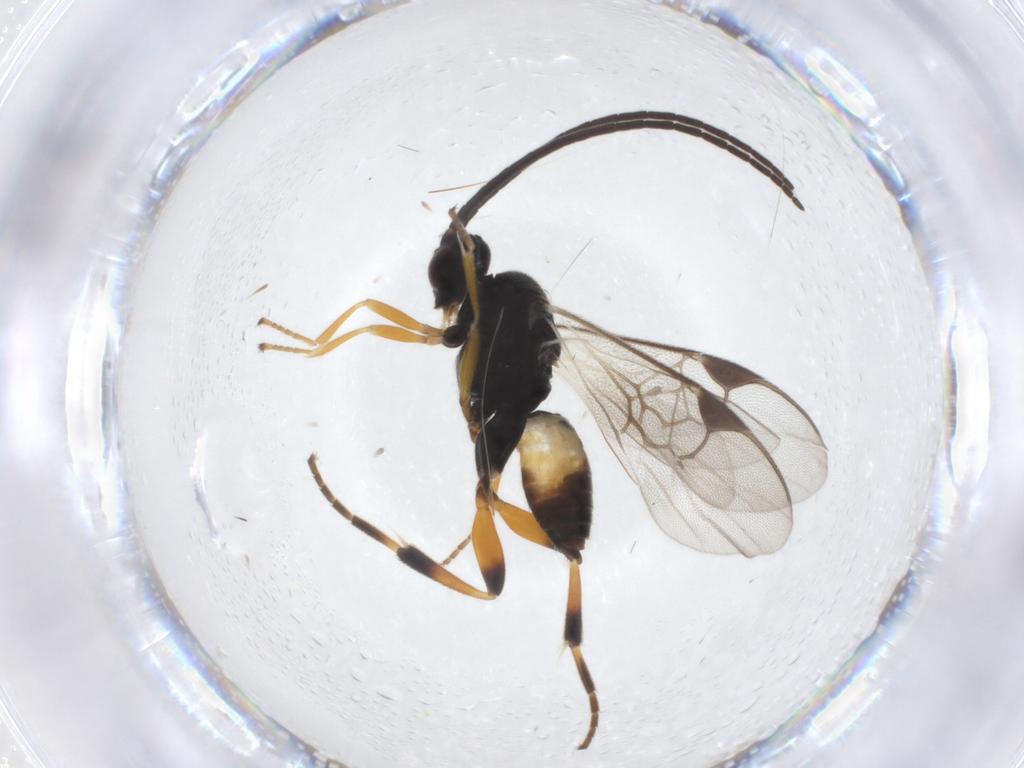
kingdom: Animalia
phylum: Arthropoda
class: Insecta
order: Hymenoptera
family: Braconidae
